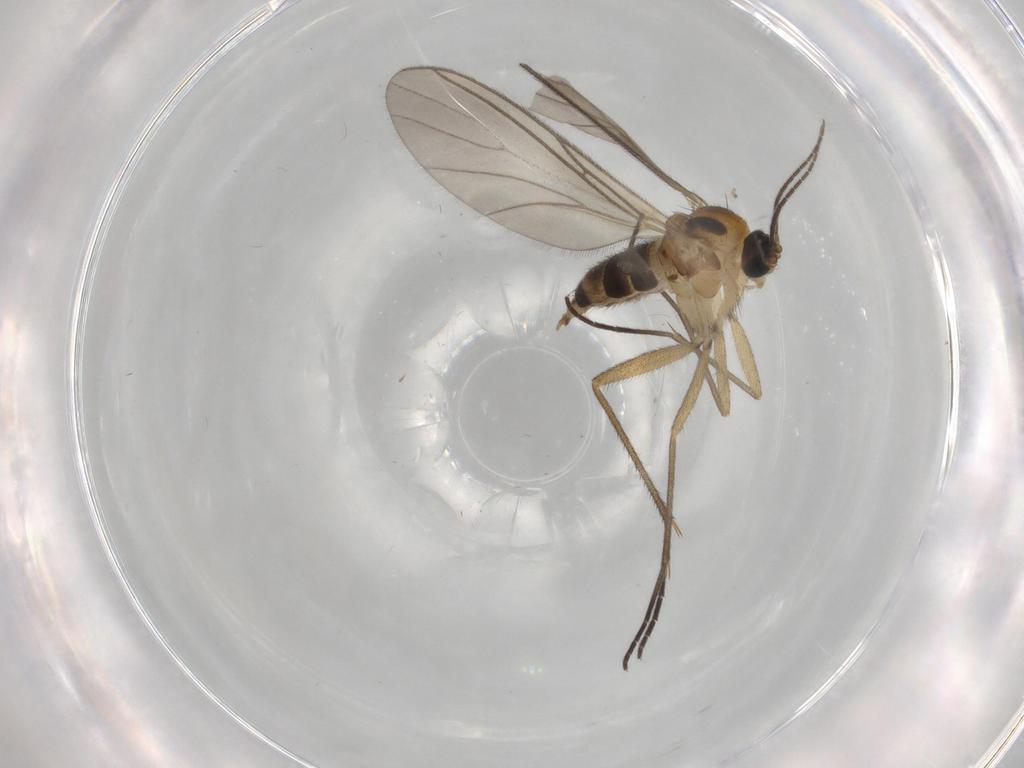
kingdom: Animalia
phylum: Arthropoda
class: Insecta
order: Diptera
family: Sciaridae
